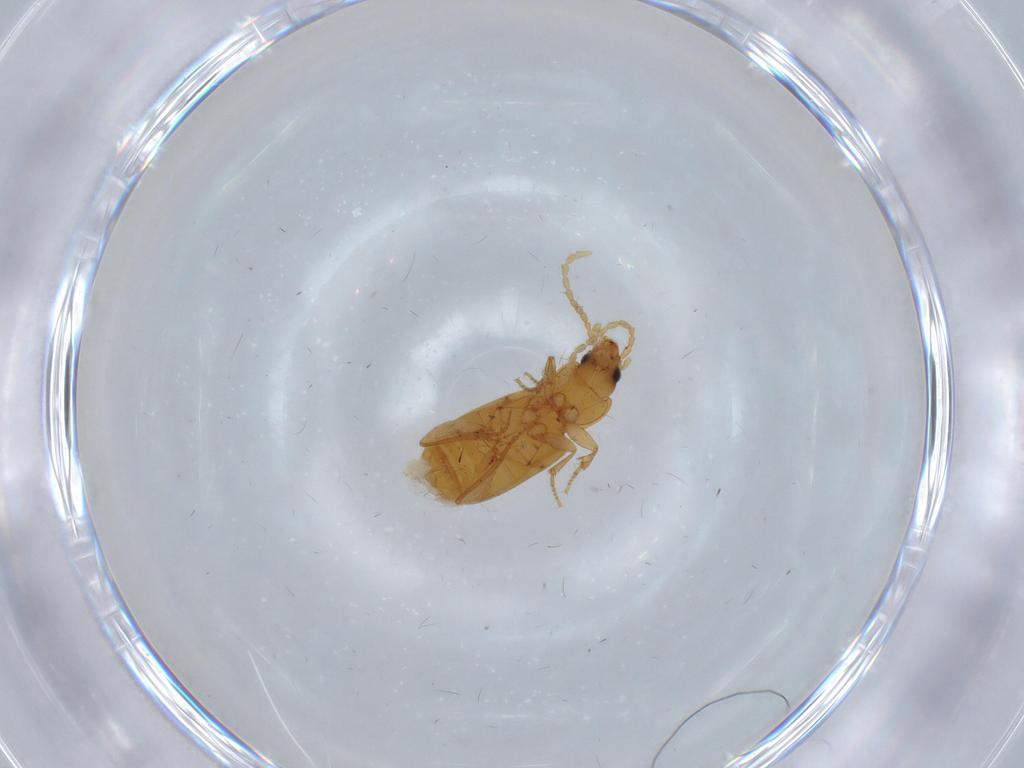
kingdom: Animalia
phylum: Arthropoda
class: Insecta
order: Coleoptera
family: Carabidae
